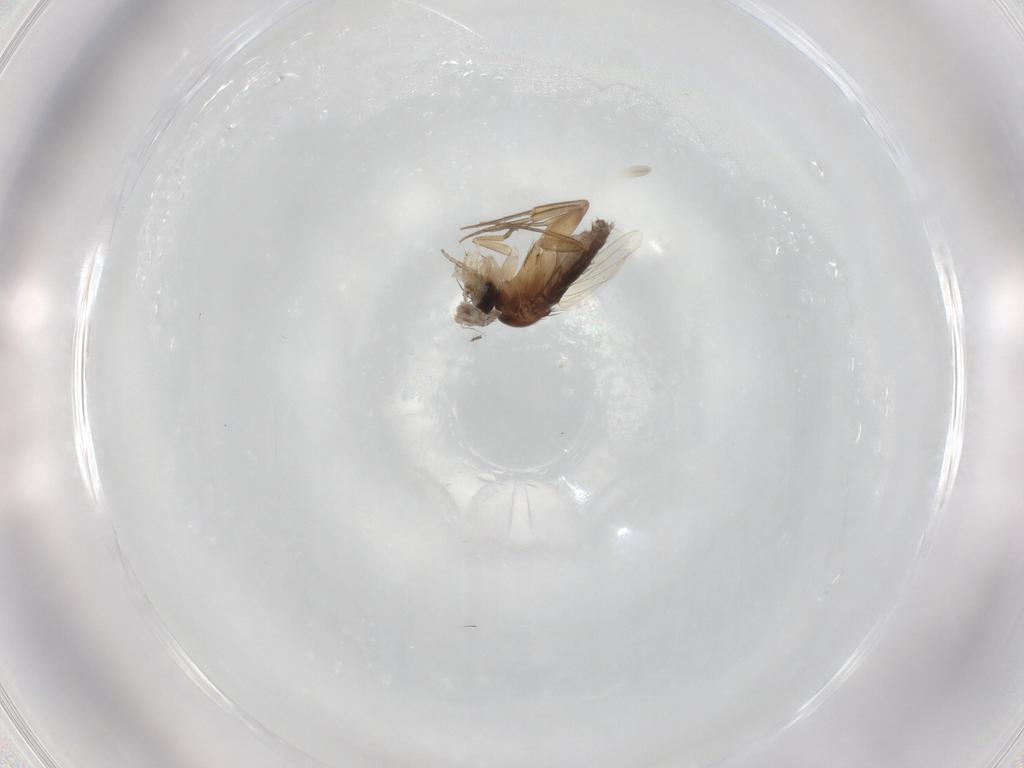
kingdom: Animalia
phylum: Arthropoda
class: Insecta
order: Diptera
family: Phoridae
